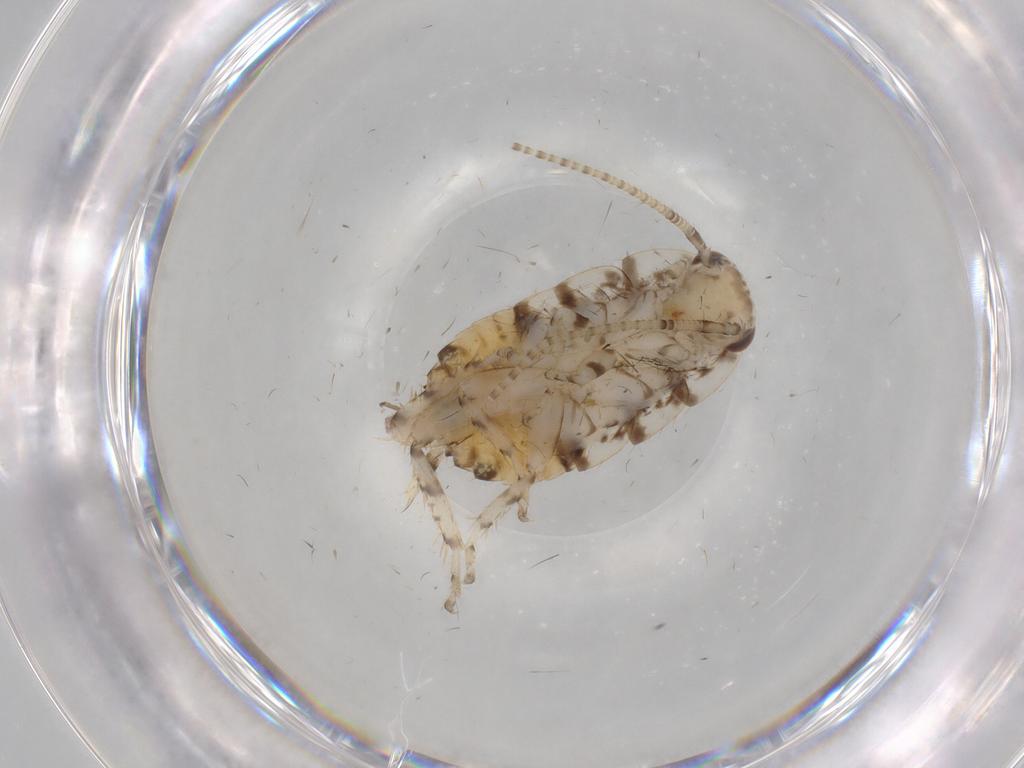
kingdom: Animalia
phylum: Arthropoda
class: Insecta
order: Blattodea
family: Ectobiidae
